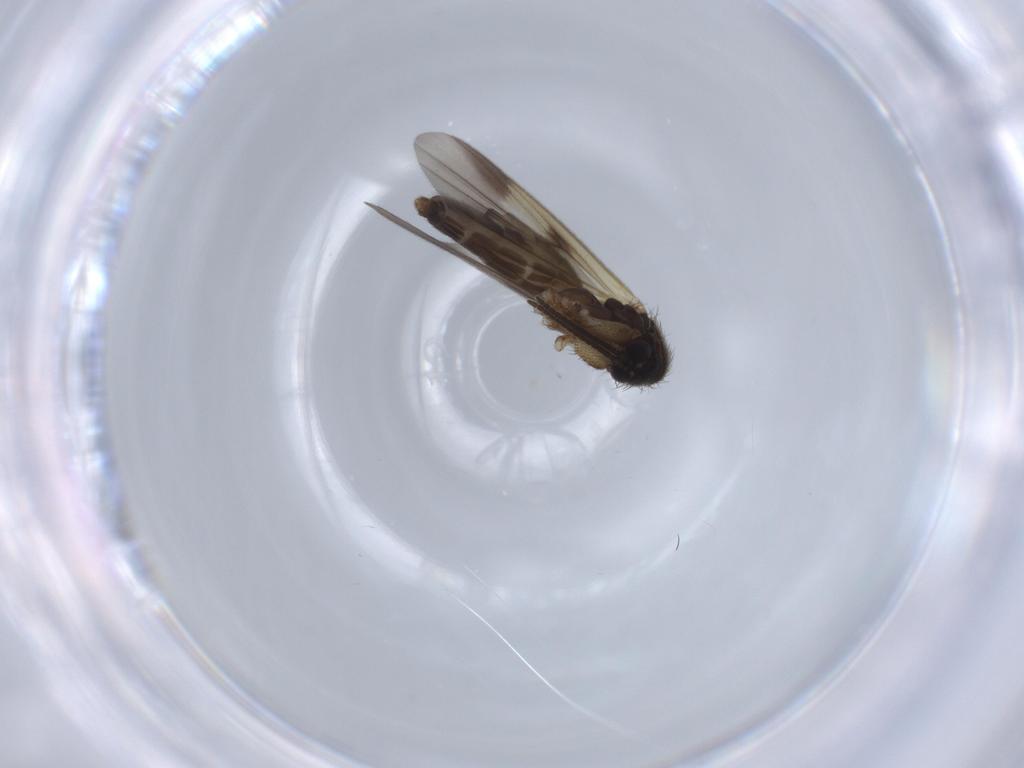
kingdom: Animalia
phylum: Arthropoda
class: Insecta
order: Diptera
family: Mycetophilidae
